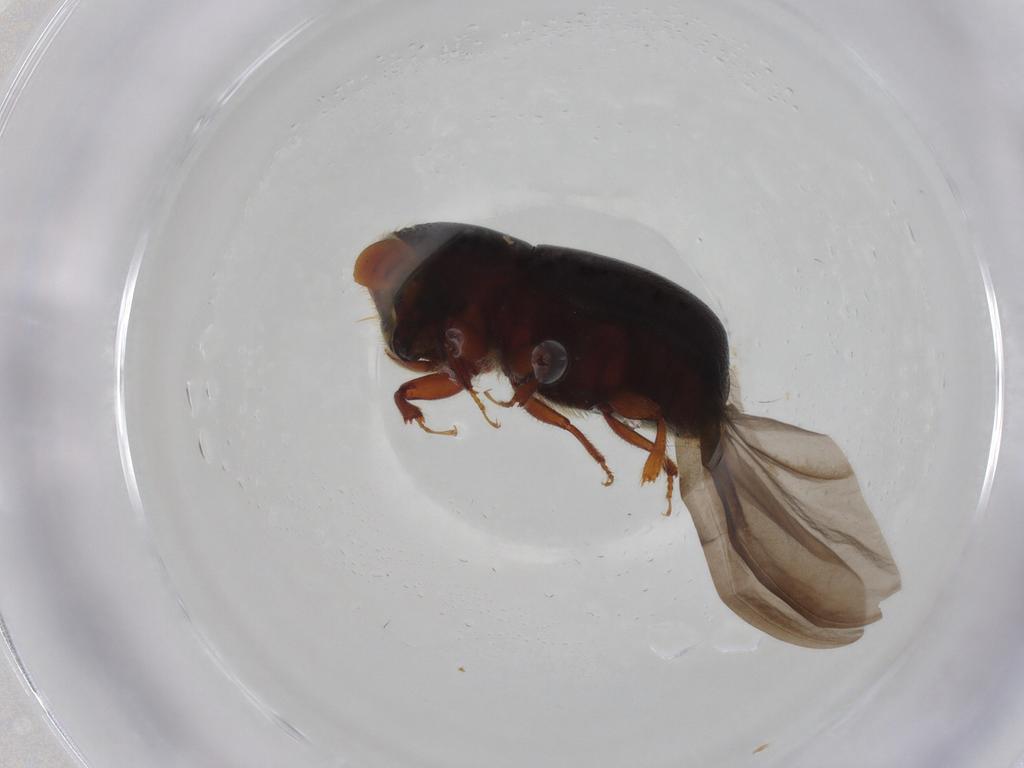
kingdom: Animalia
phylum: Arthropoda
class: Insecta
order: Coleoptera
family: Curculionidae
